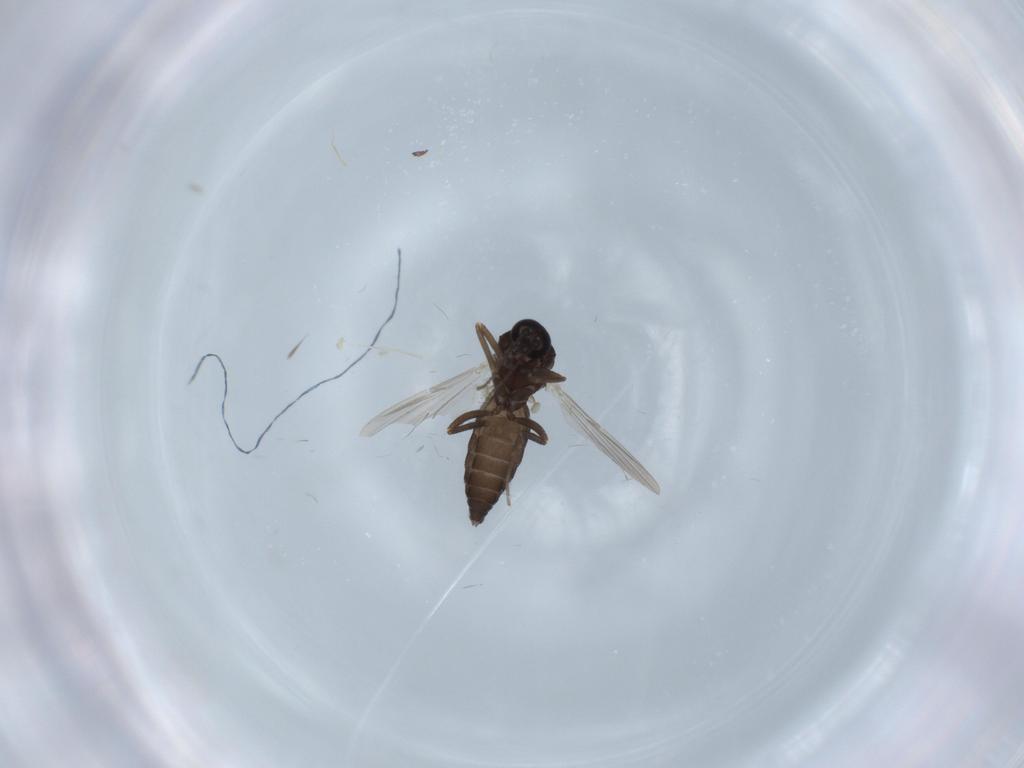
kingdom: Animalia
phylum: Arthropoda
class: Insecta
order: Diptera
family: Ceratopogonidae
